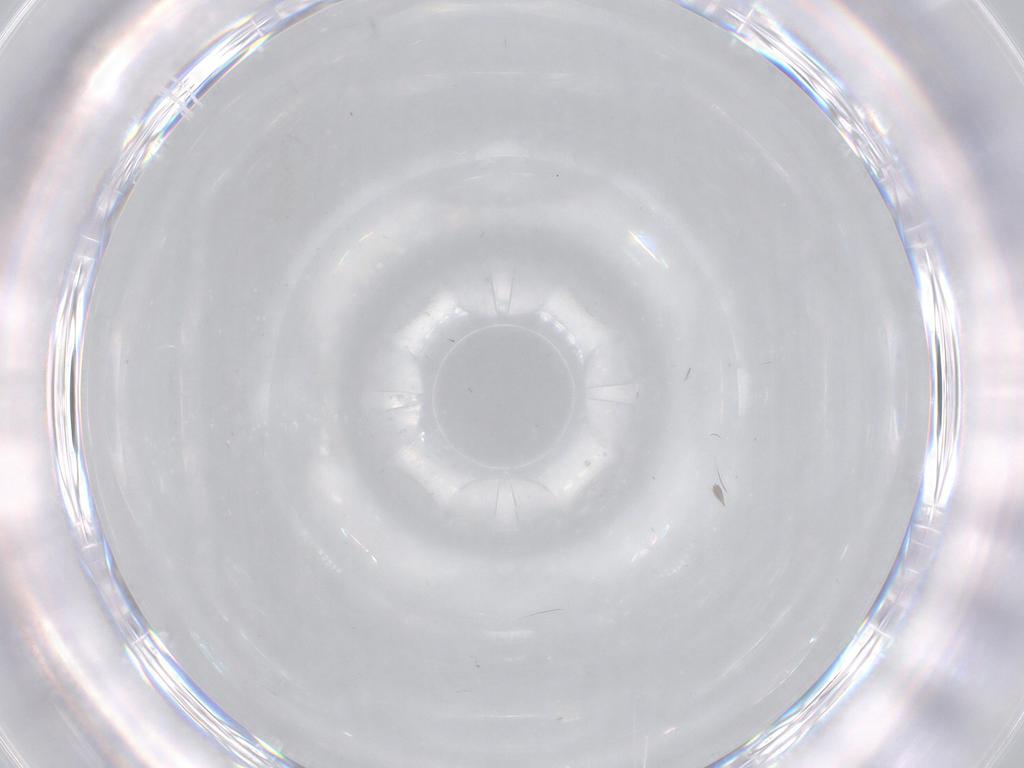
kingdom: Animalia
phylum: Arthropoda
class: Insecta
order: Diptera
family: Ceratopogonidae
